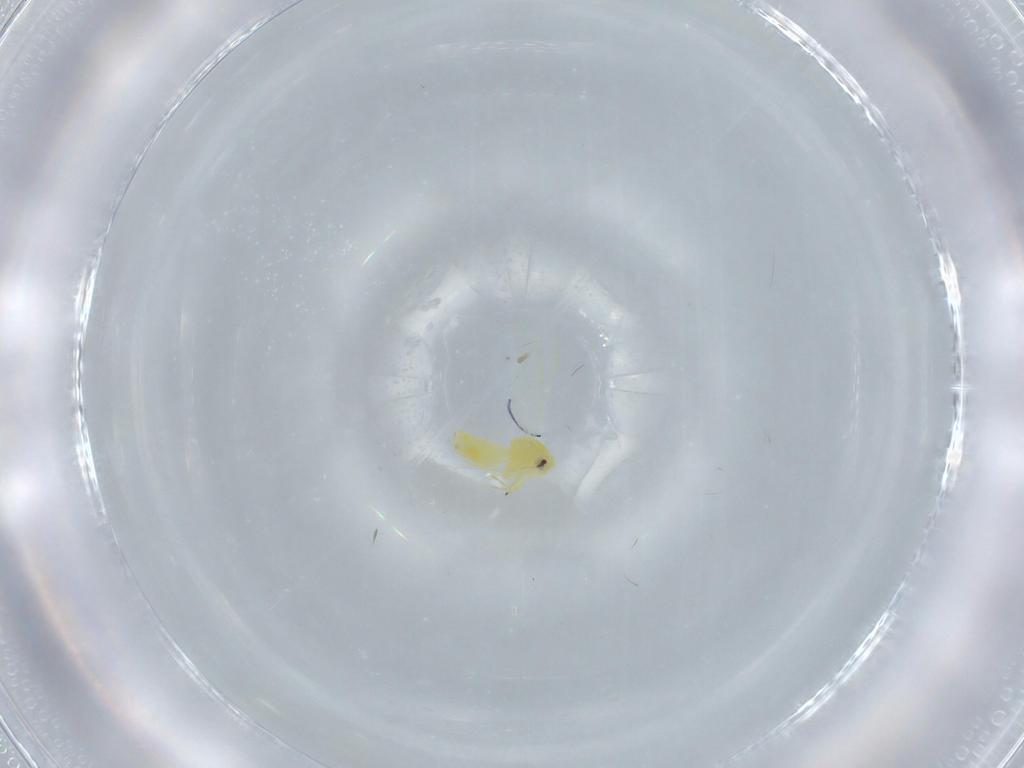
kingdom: Animalia
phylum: Arthropoda
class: Insecta
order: Hemiptera
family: Aleyrodidae
